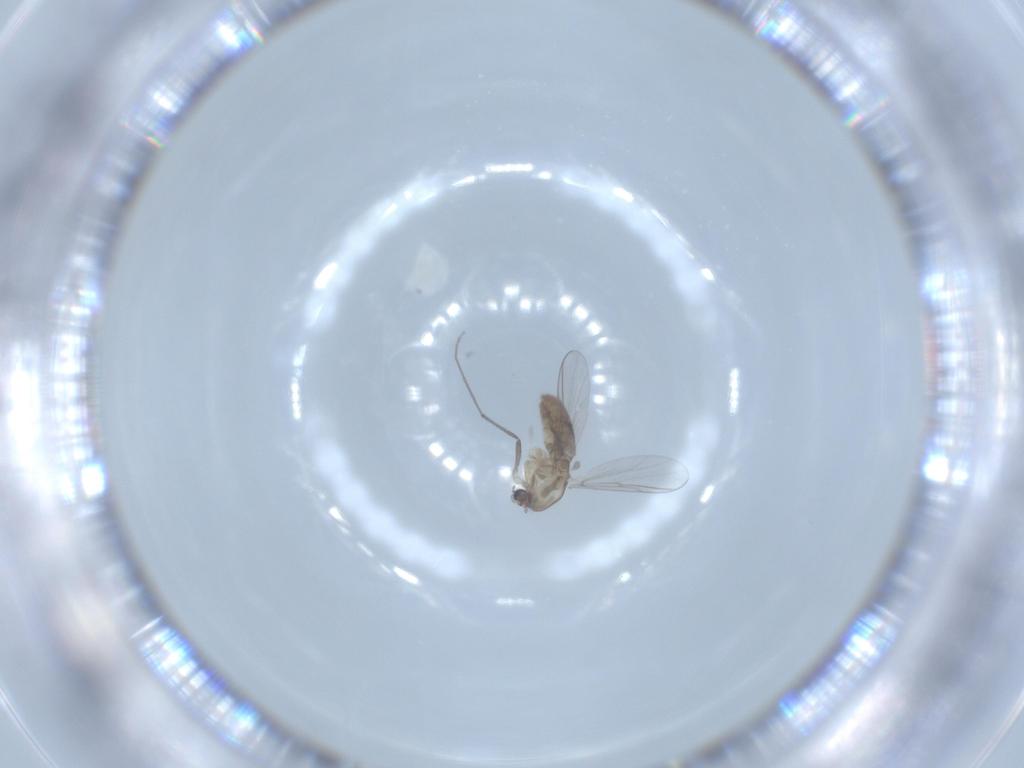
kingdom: Animalia
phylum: Arthropoda
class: Insecta
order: Diptera
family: Chironomidae
